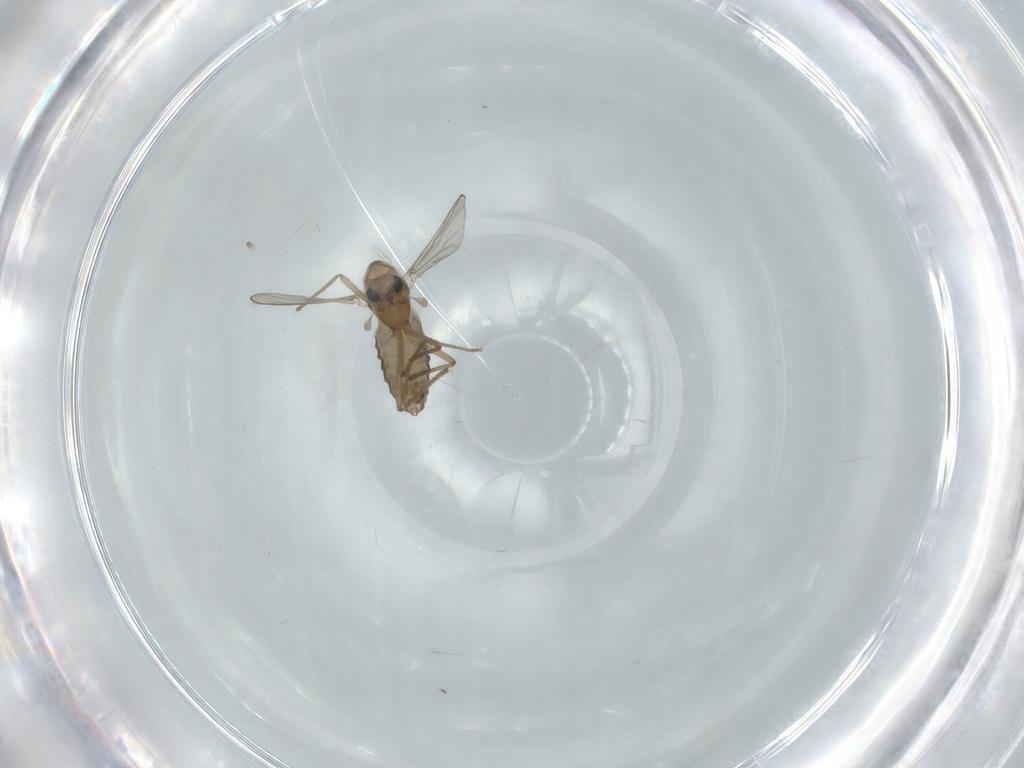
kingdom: Animalia
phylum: Arthropoda
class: Insecta
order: Diptera
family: Chironomidae
